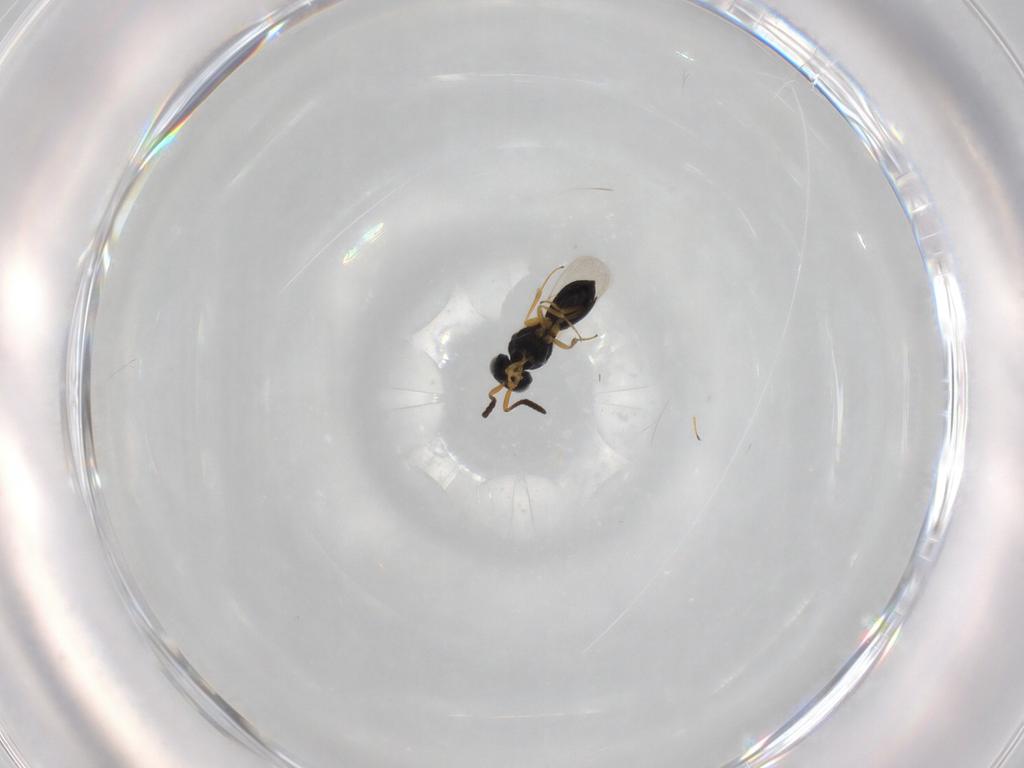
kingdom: Animalia
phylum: Arthropoda
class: Insecta
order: Hymenoptera
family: Scelionidae
